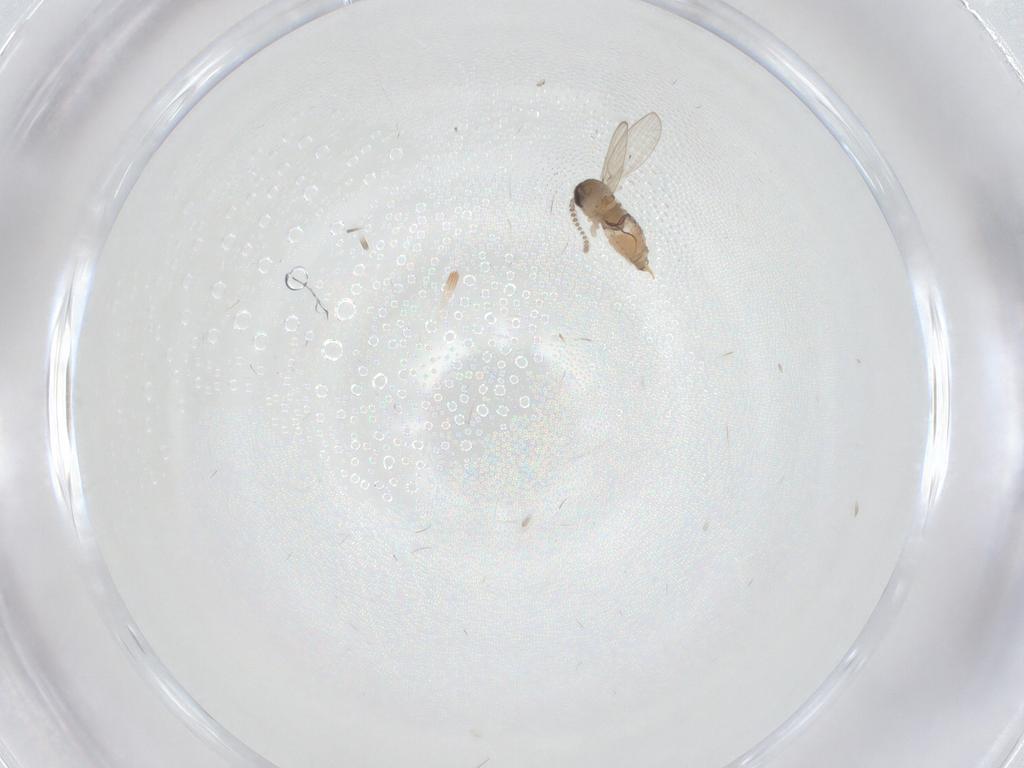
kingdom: Animalia
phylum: Arthropoda
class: Insecta
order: Diptera
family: Psychodidae
